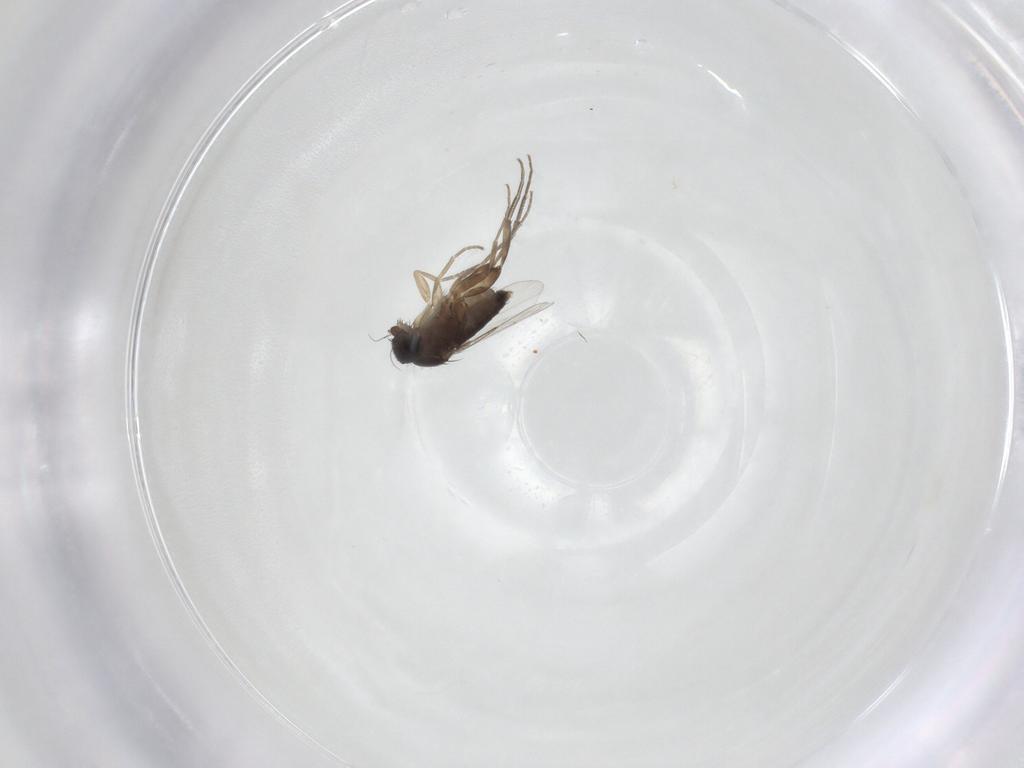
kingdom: Animalia
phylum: Arthropoda
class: Insecta
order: Diptera
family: Phoridae
